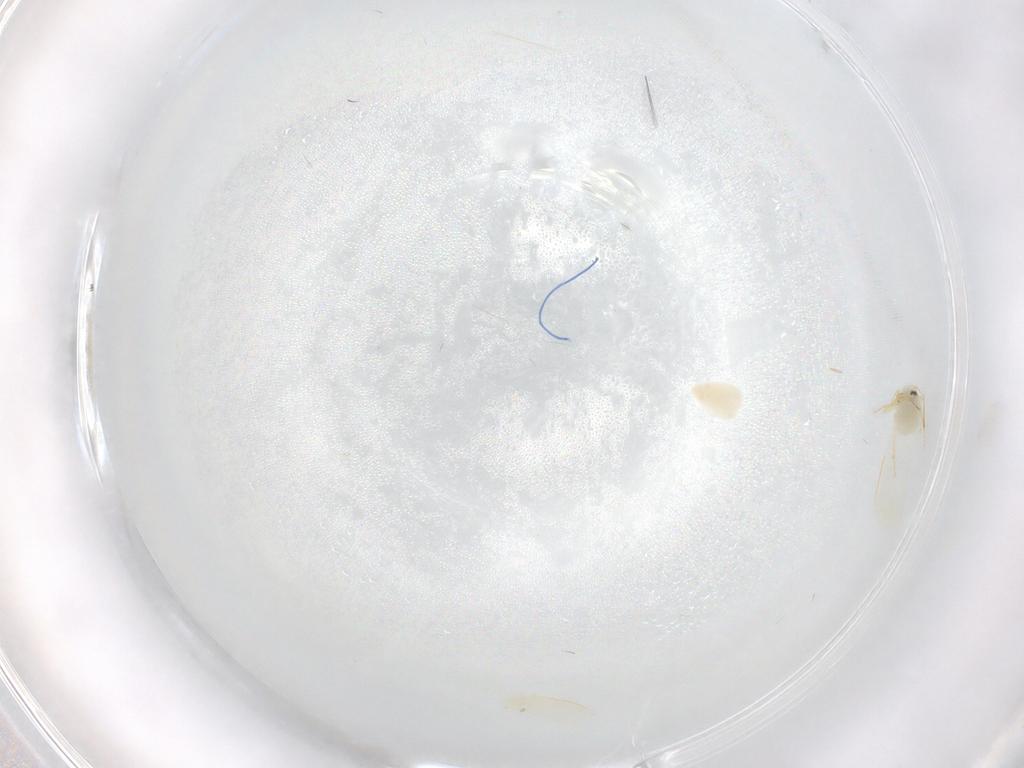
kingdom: Animalia
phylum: Arthropoda
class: Insecta
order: Hemiptera
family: Aleyrodidae
